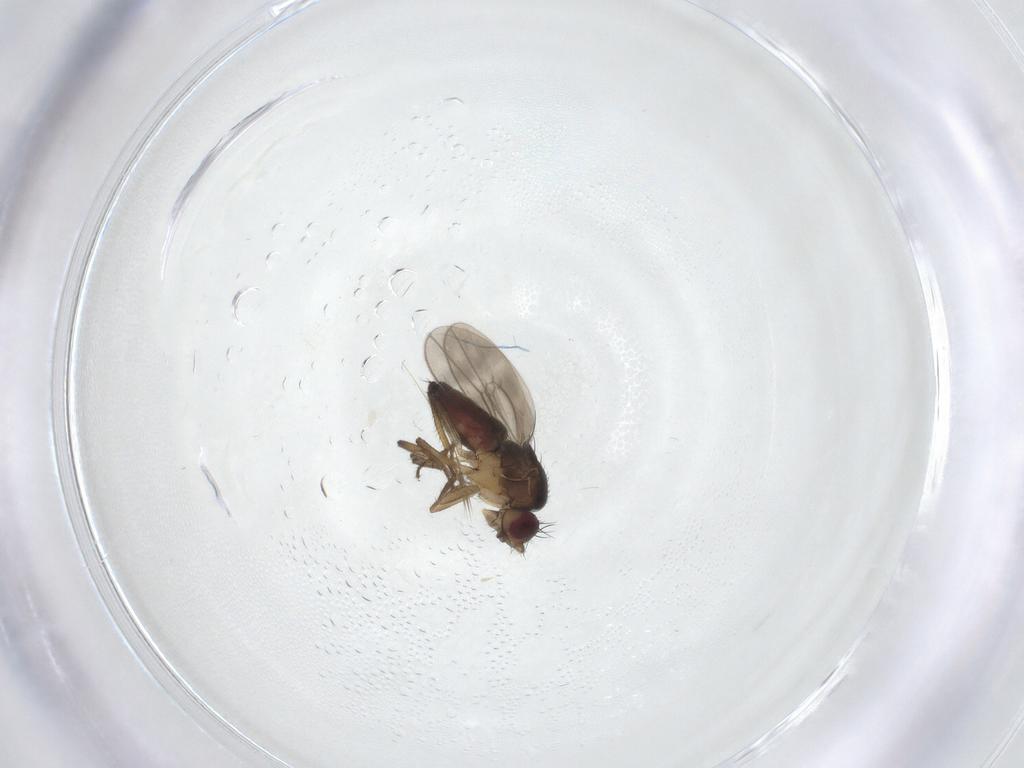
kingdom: Animalia
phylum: Arthropoda
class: Insecta
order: Diptera
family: Sphaeroceridae
